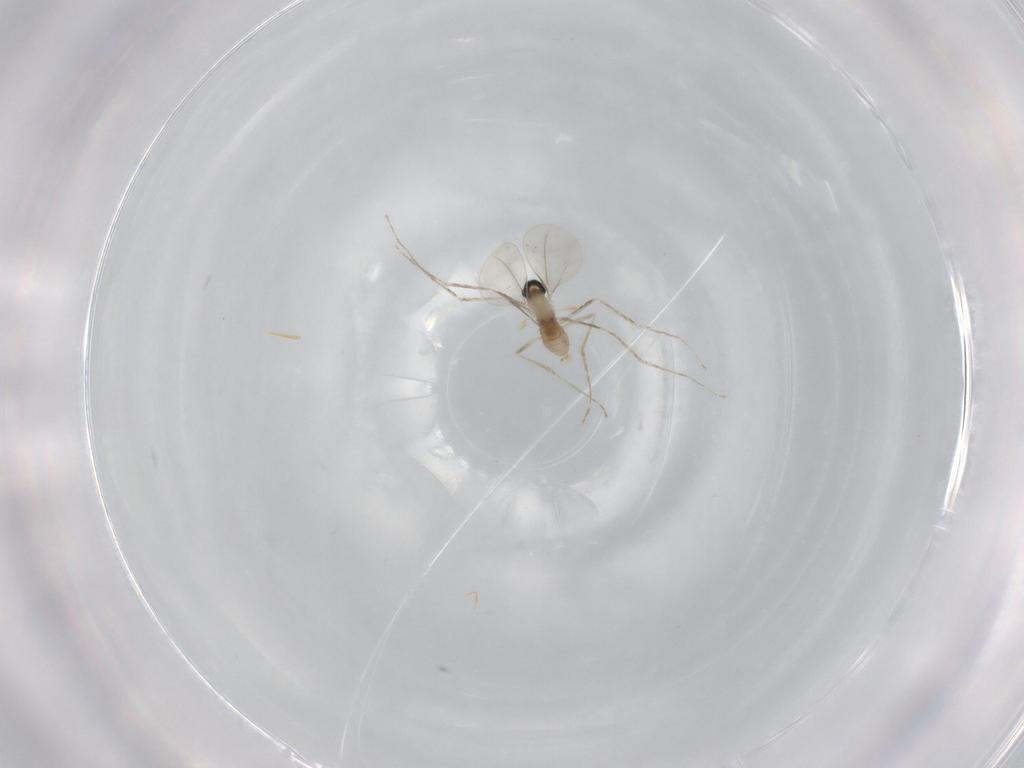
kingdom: Animalia
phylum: Arthropoda
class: Insecta
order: Diptera
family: Cecidomyiidae
